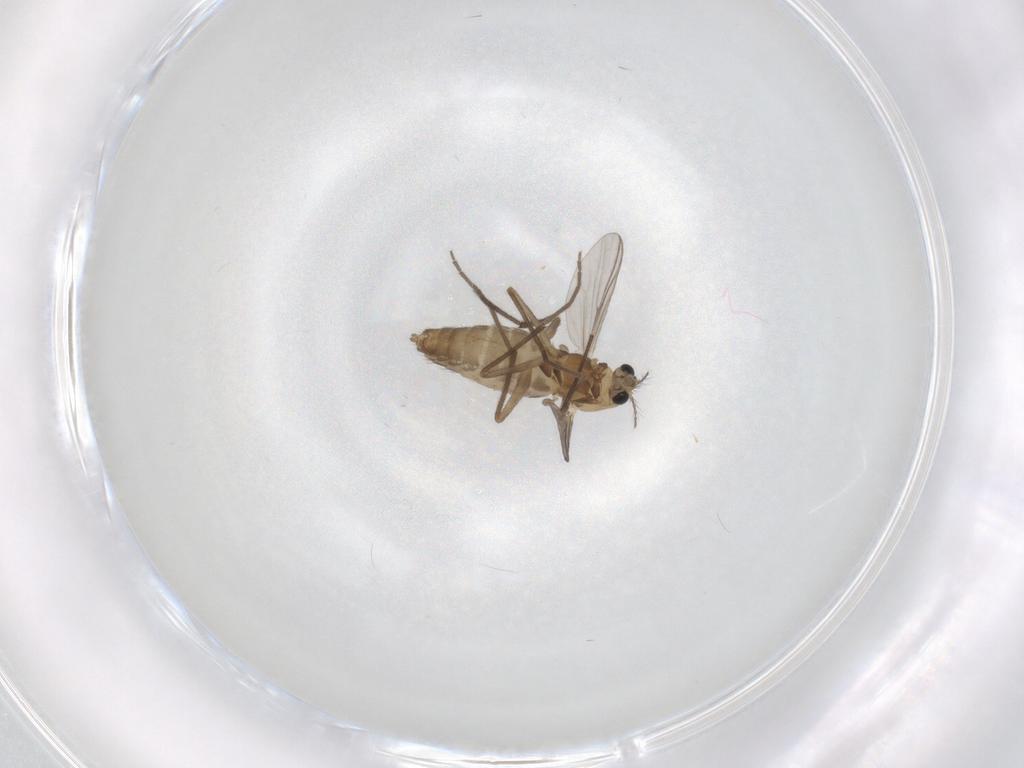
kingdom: Animalia
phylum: Arthropoda
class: Insecta
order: Diptera
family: Chironomidae
